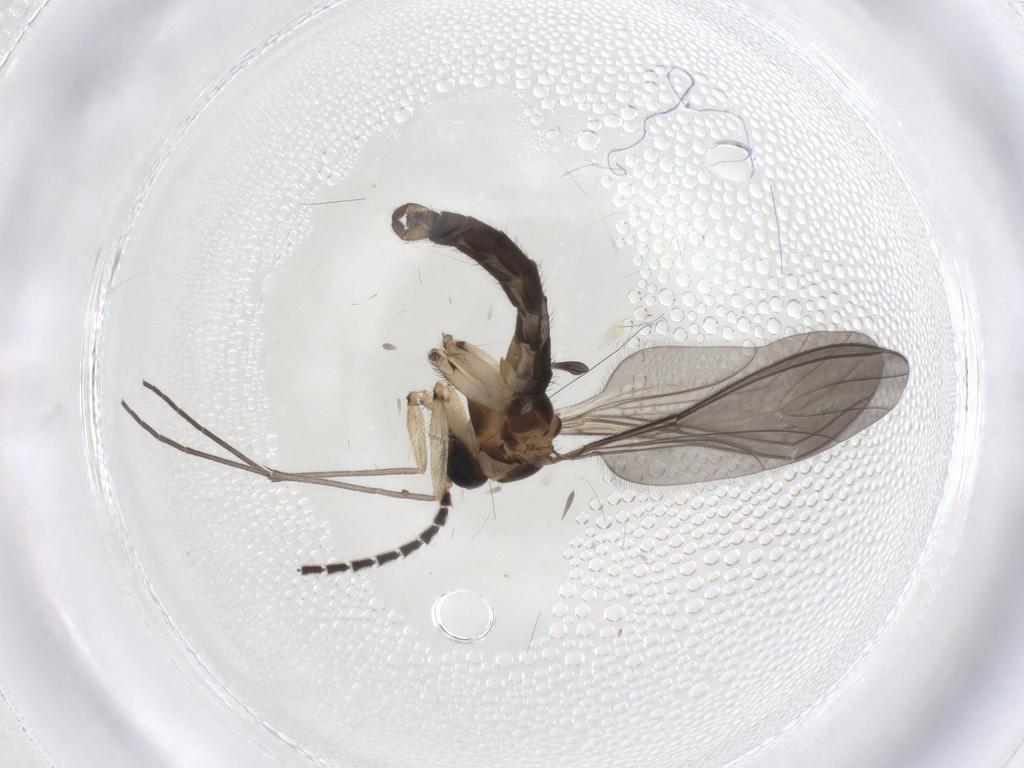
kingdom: Animalia
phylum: Arthropoda
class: Insecta
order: Diptera
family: Sciaridae
